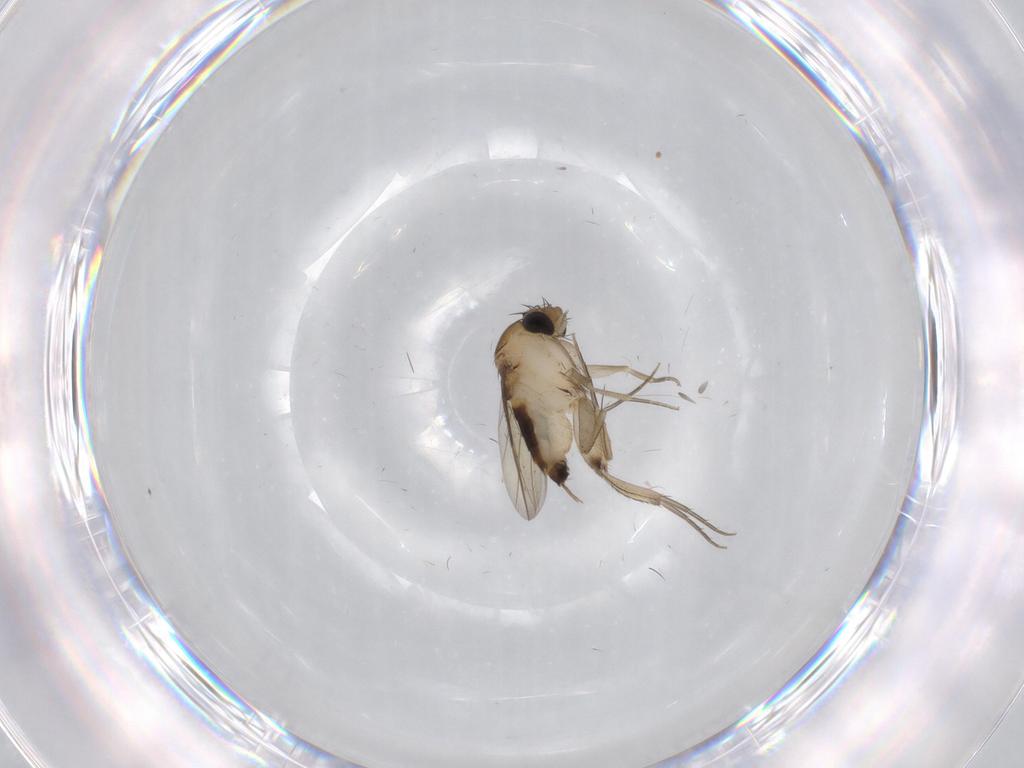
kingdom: Animalia
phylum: Arthropoda
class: Insecta
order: Diptera
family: Phoridae
